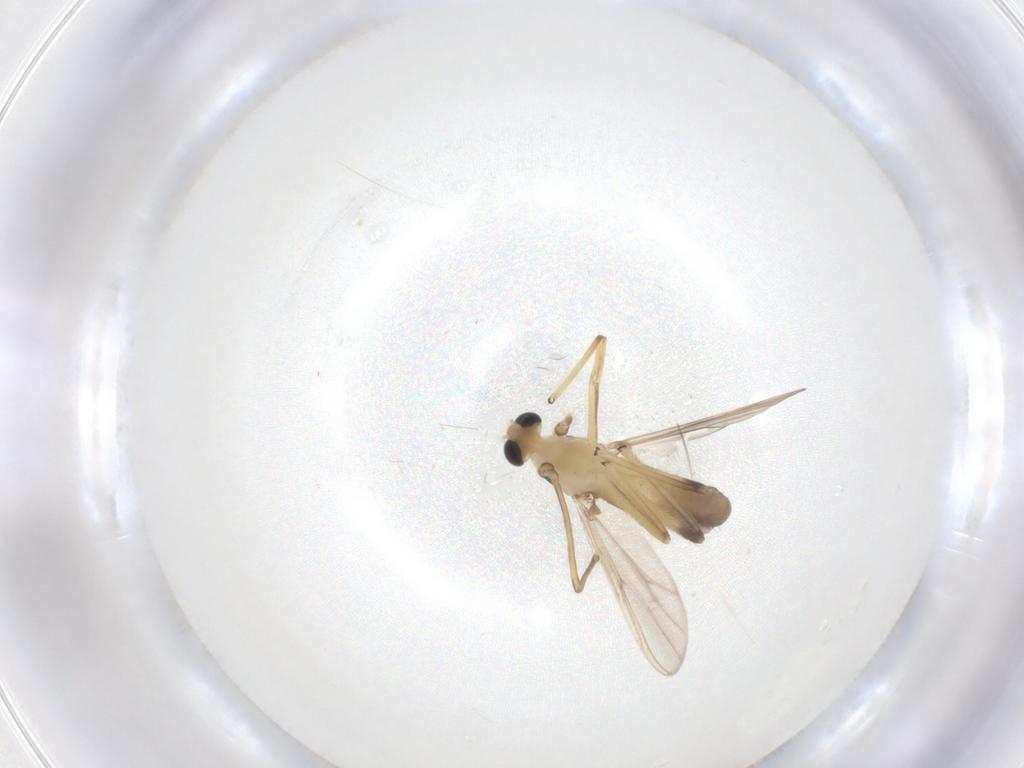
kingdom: Animalia
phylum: Arthropoda
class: Insecta
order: Diptera
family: Chironomidae
